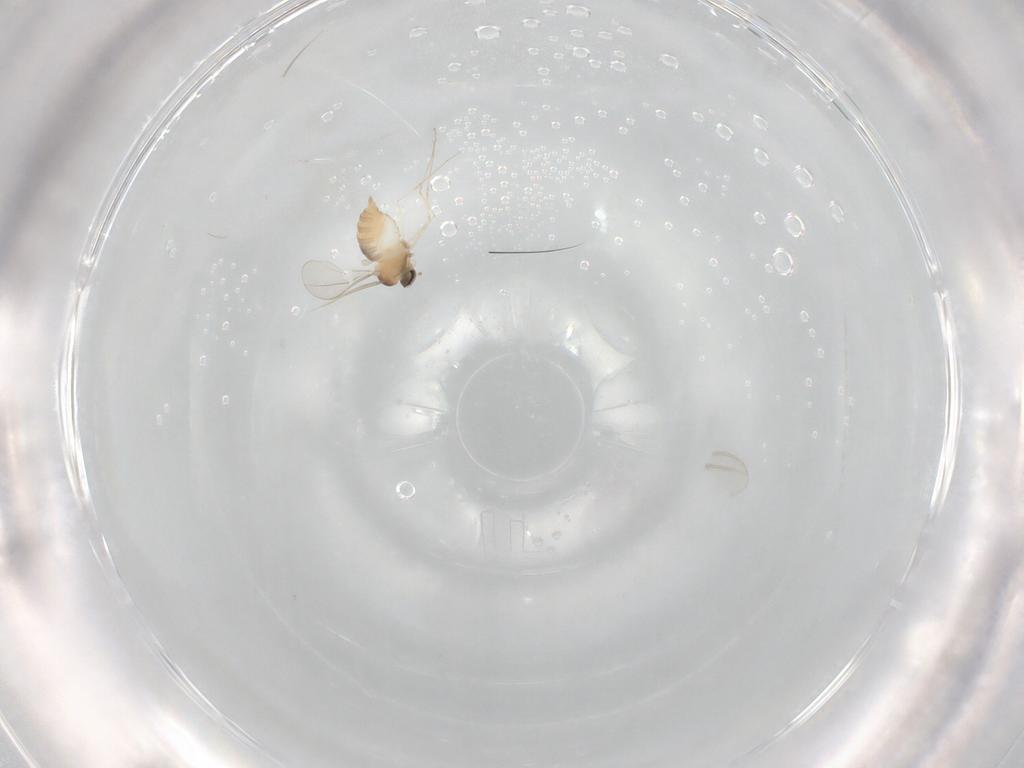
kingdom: Animalia
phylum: Arthropoda
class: Insecta
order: Diptera
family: Cecidomyiidae
